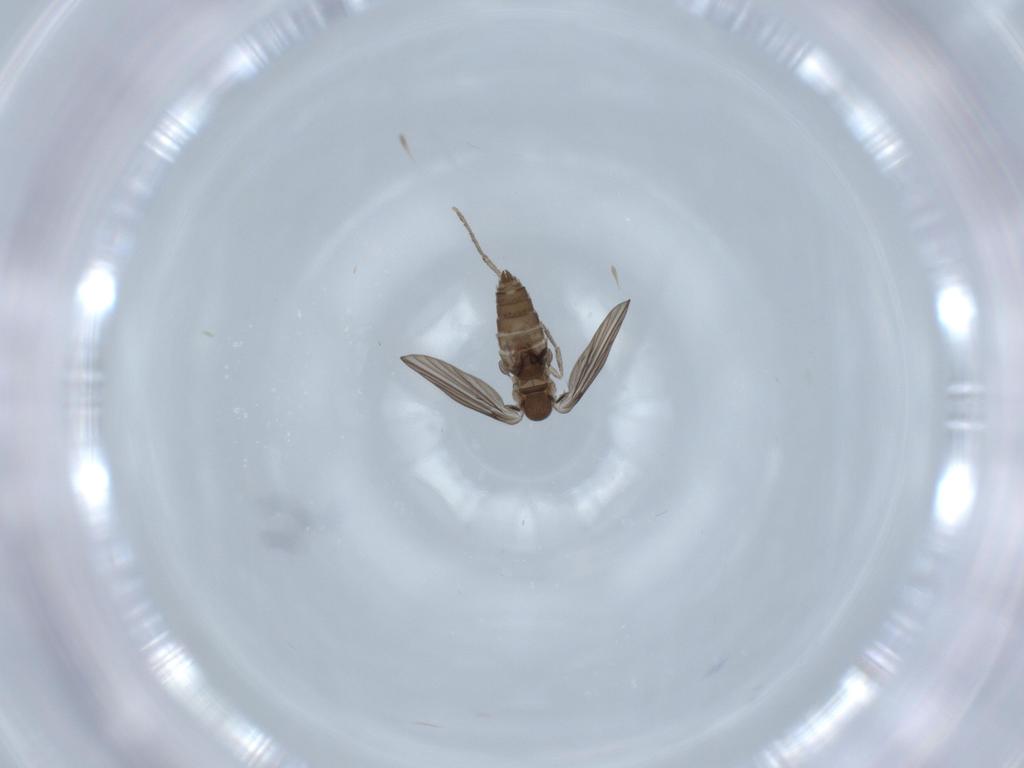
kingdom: Animalia
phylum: Arthropoda
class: Insecta
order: Diptera
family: Psychodidae
